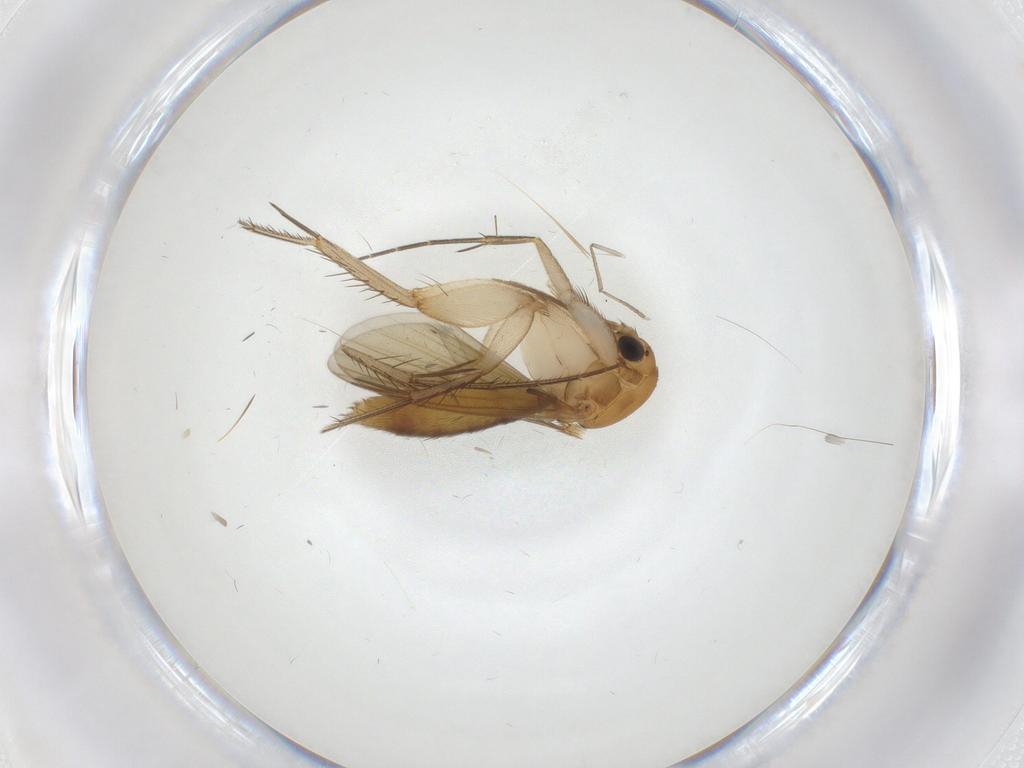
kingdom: Animalia
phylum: Arthropoda
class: Insecta
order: Diptera
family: Mycetophilidae
